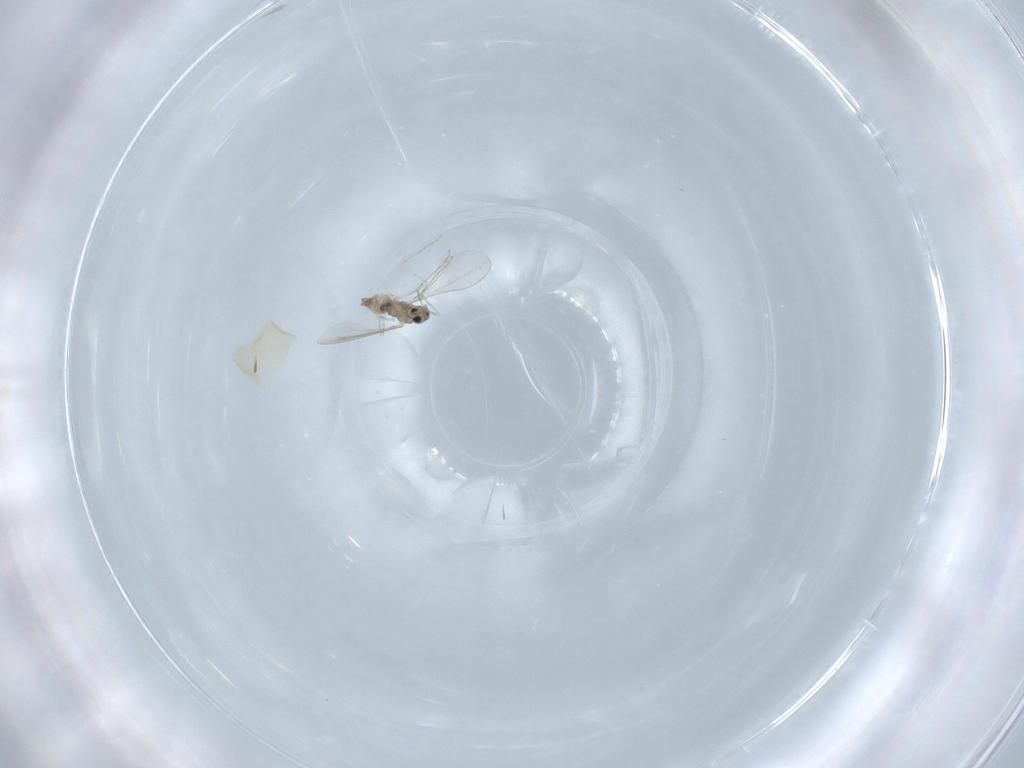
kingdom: Animalia
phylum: Arthropoda
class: Insecta
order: Diptera
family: Cecidomyiidae
